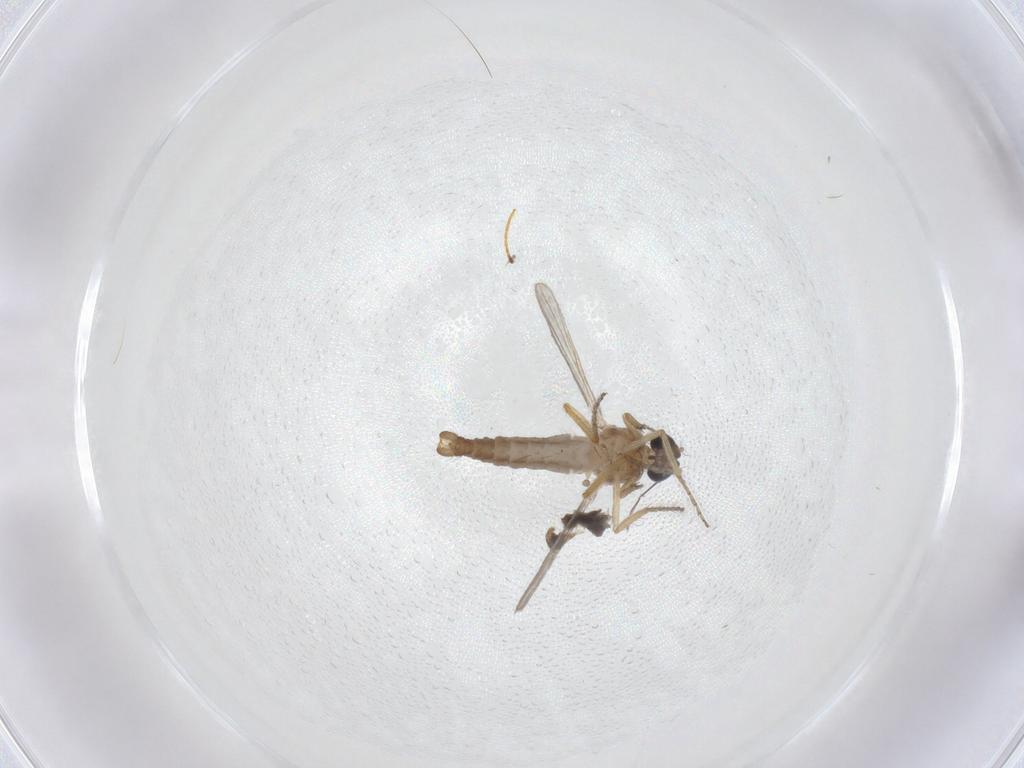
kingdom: Animalia
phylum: Arthropoda
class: Insecta
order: Diptera
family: Ceratopogonidae
